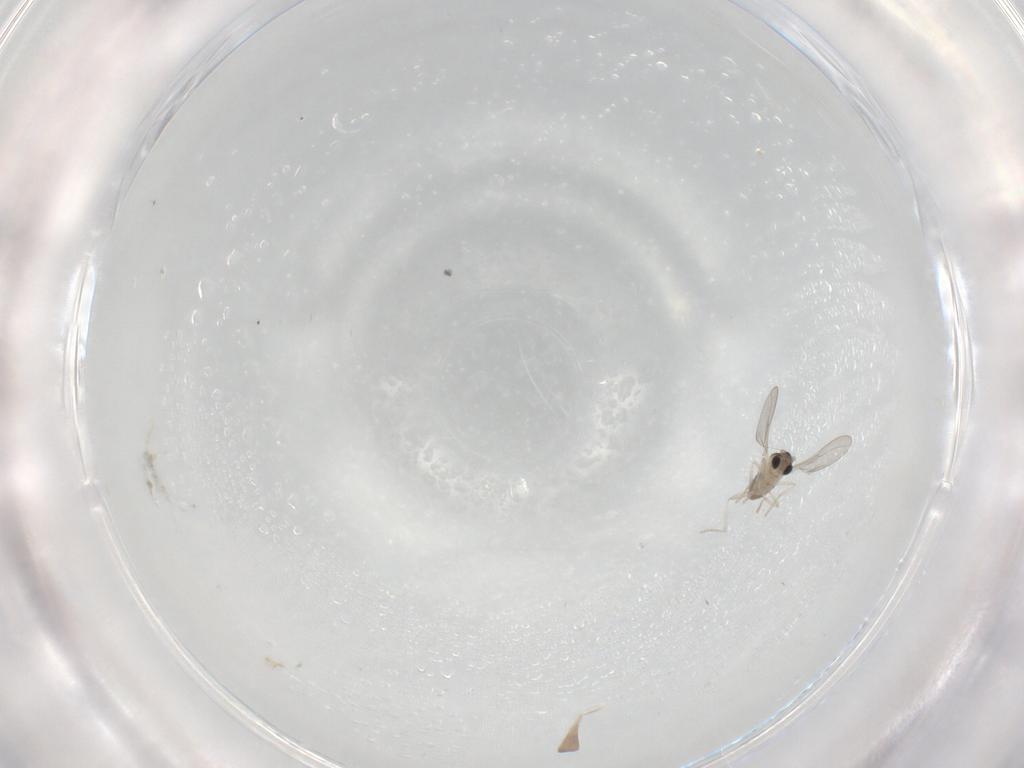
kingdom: Animalia
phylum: Arthropoda
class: Insecta
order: Diptera
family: Cecidomyiidae
